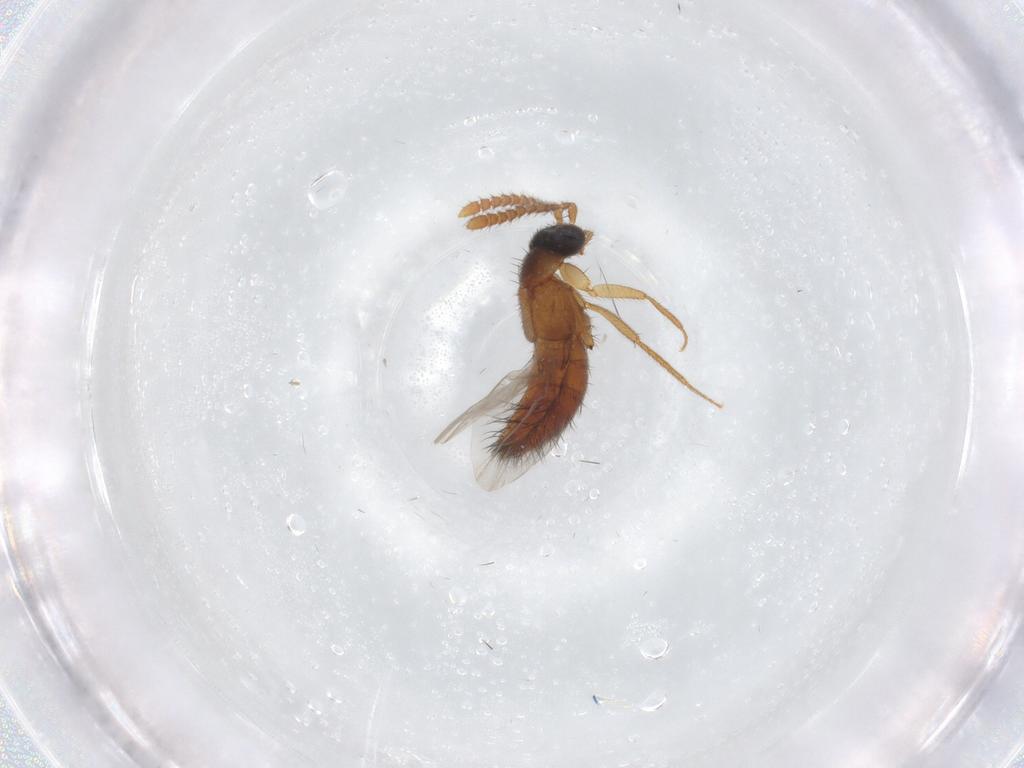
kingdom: Animalia
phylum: Arthropoda
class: Insecta
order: Coleoptera
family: Staphylinidae
